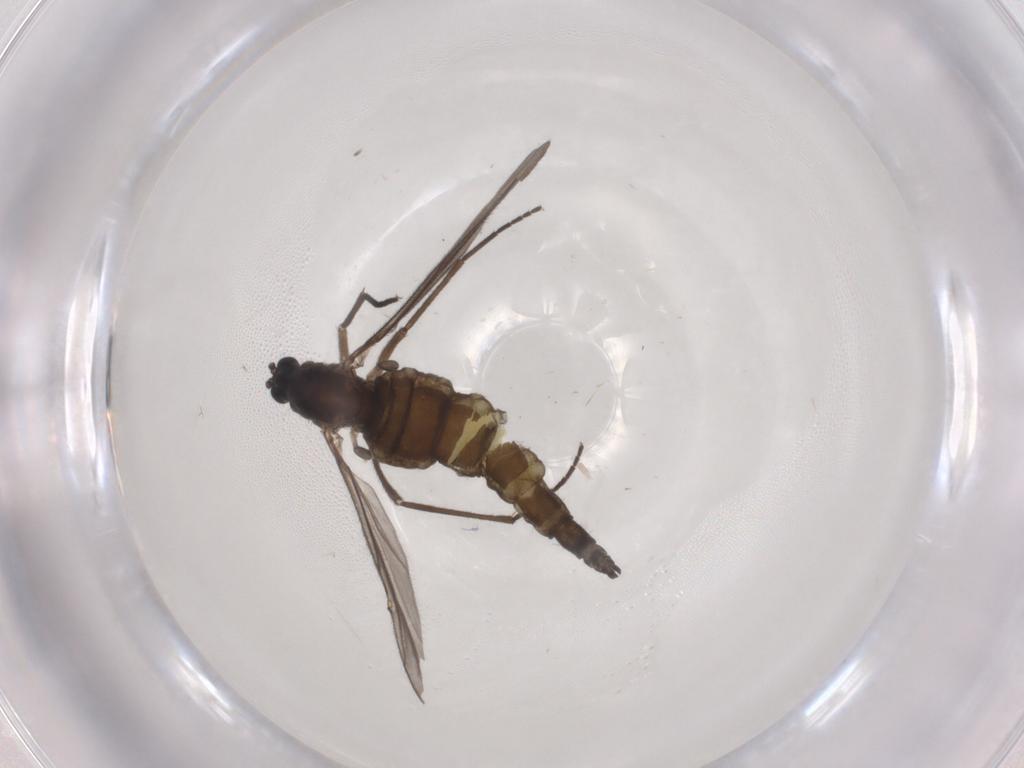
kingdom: Animalia
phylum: Arthropoda
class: Insecta
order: Diptera
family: Sciaridae
